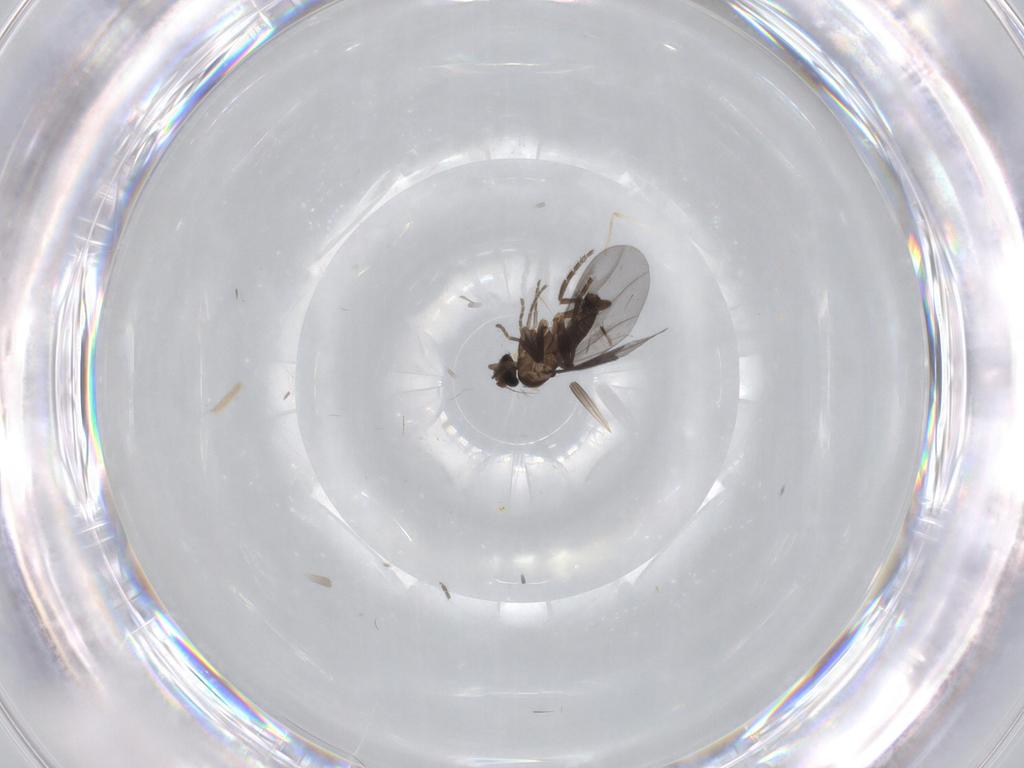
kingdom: Animalia
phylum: Arthropoda
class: Insecta
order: Diptera
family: Phoridae
